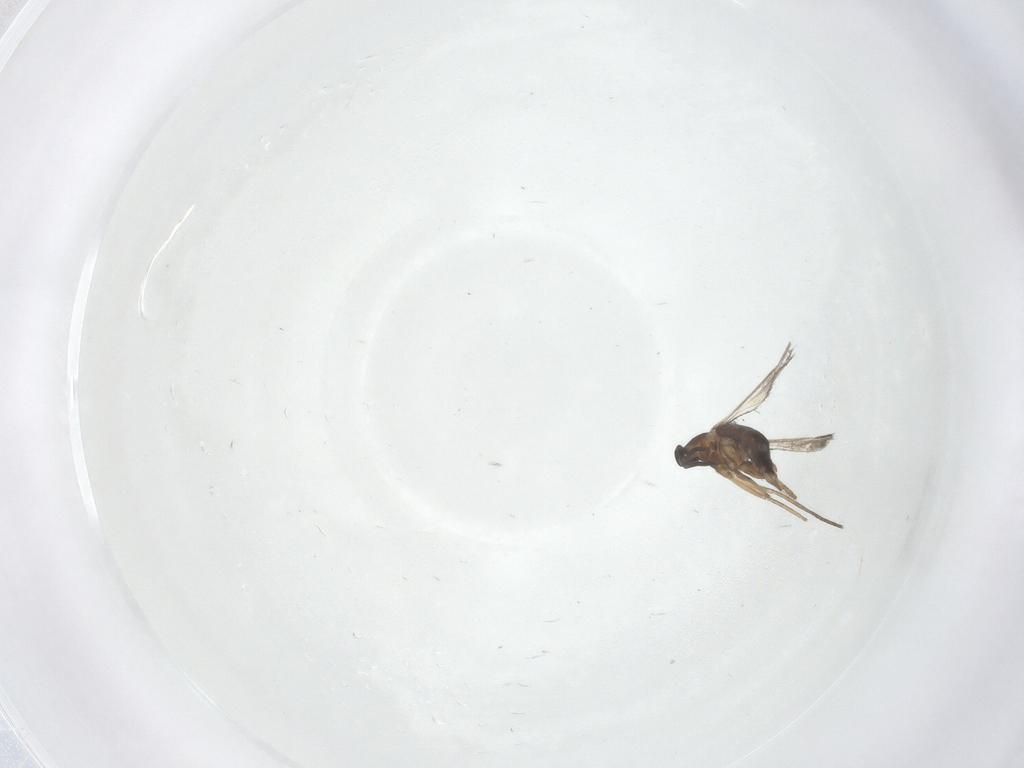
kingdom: Animalia
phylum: Arthropoda
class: Insecta
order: Diptera
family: Cecidomyiidae
